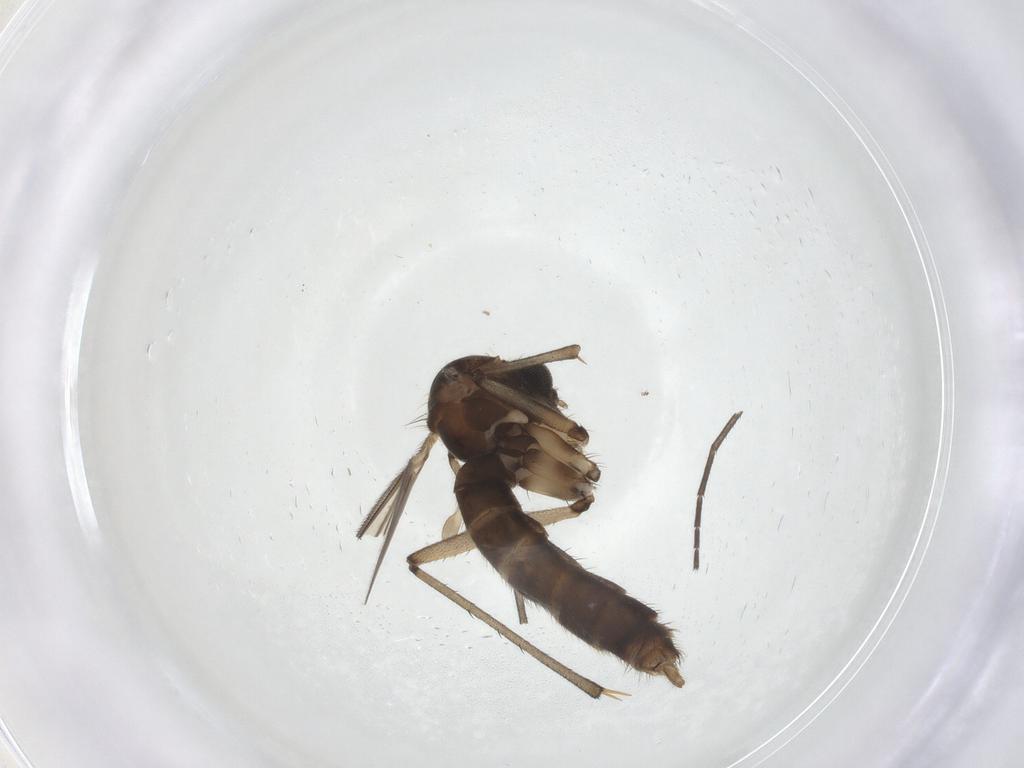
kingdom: Animalia
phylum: Arthropoda
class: Insecta
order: Diptera
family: Mycetophilidae
